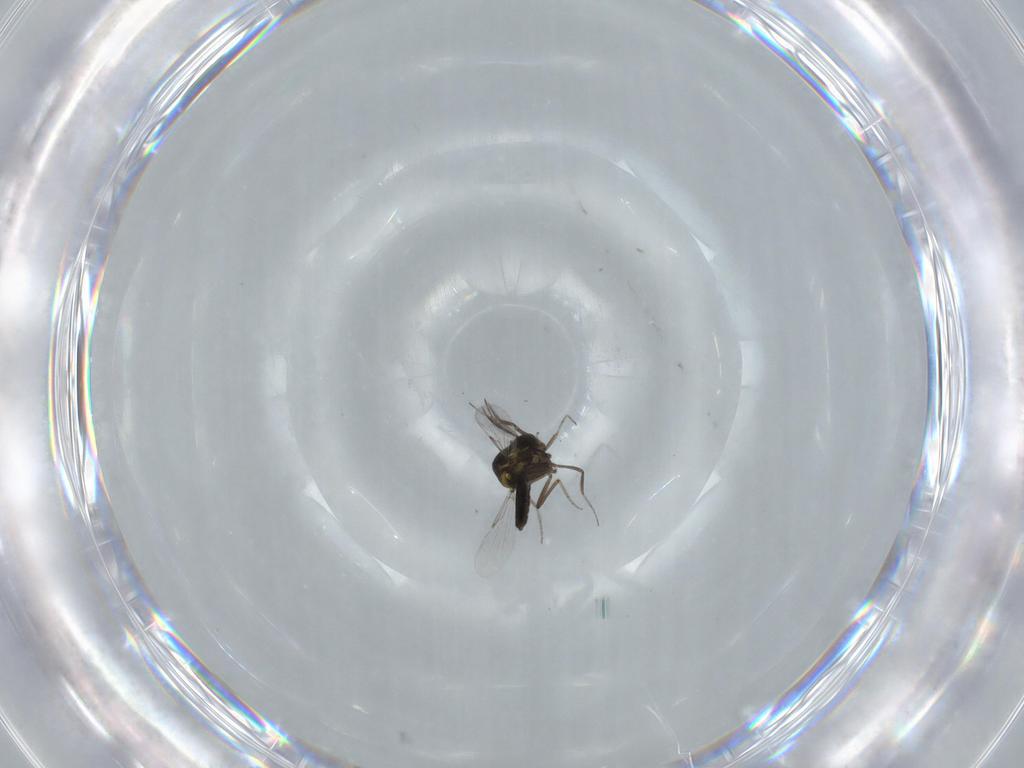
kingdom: Animalia
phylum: Arthropoda
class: Insecta
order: Diptera
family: Ceratopogonidae
